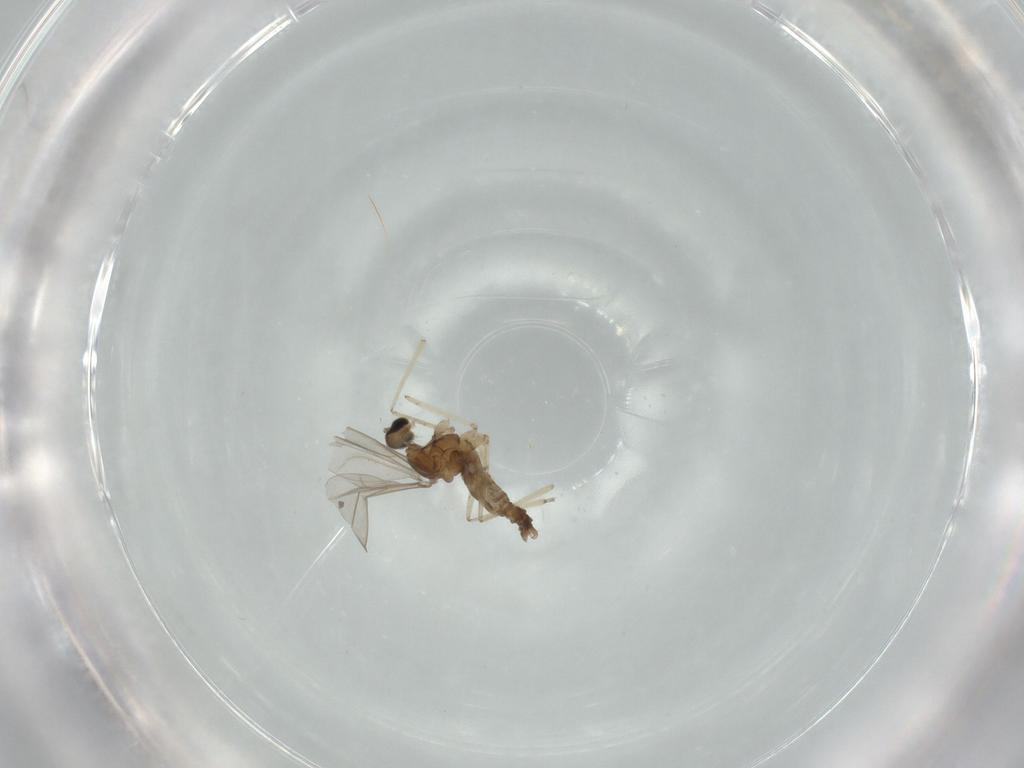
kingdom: Animalia
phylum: Arthropoda
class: Insecta
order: Diptera
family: Cecidomyiidae
